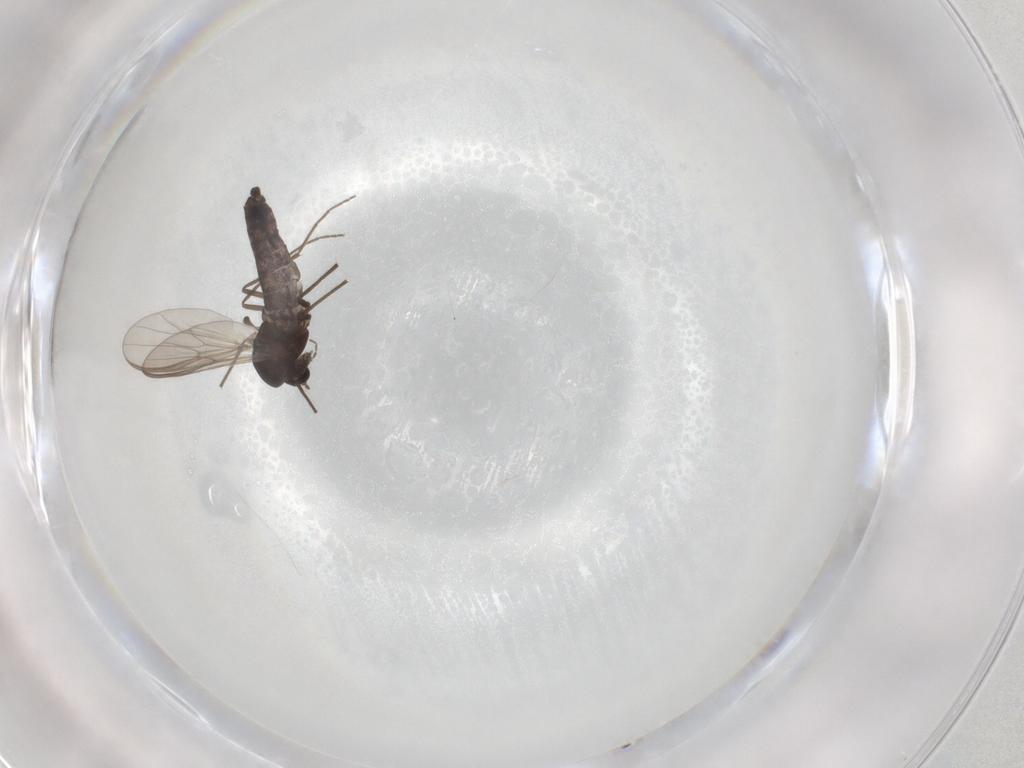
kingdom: Animalia
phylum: Arthropoda
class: Insecta
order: Diptera
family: Chironomidae
